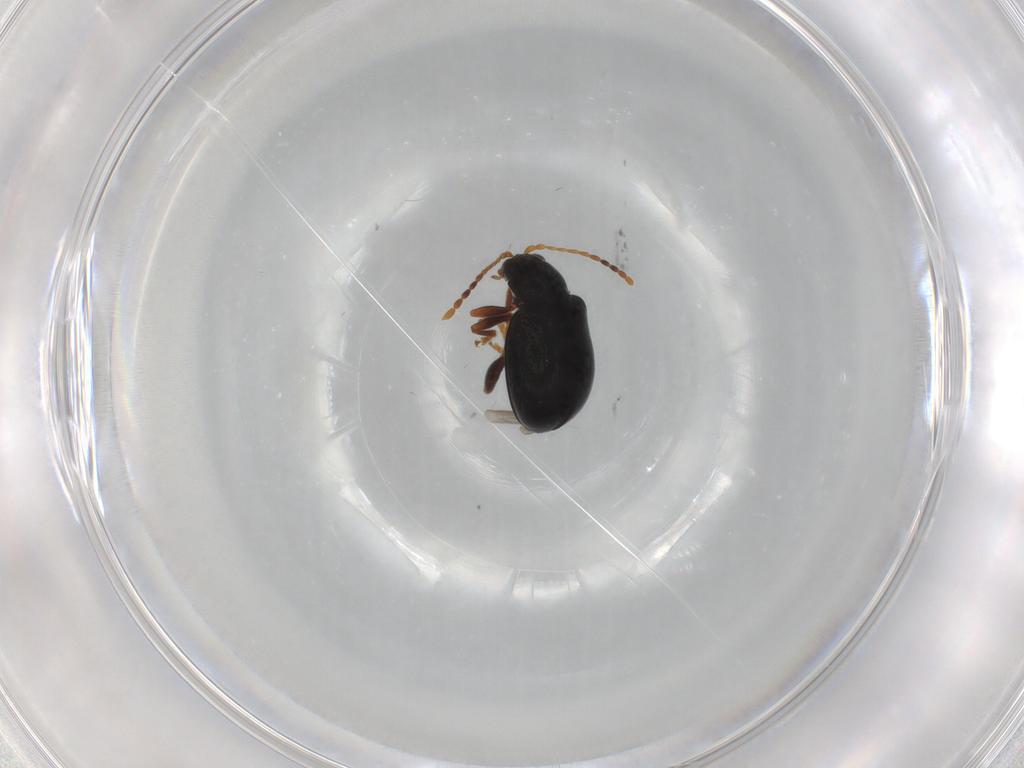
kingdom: Animalia
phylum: Arthropoda
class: Insecta
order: Coleoptera
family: Chrysomelidae
